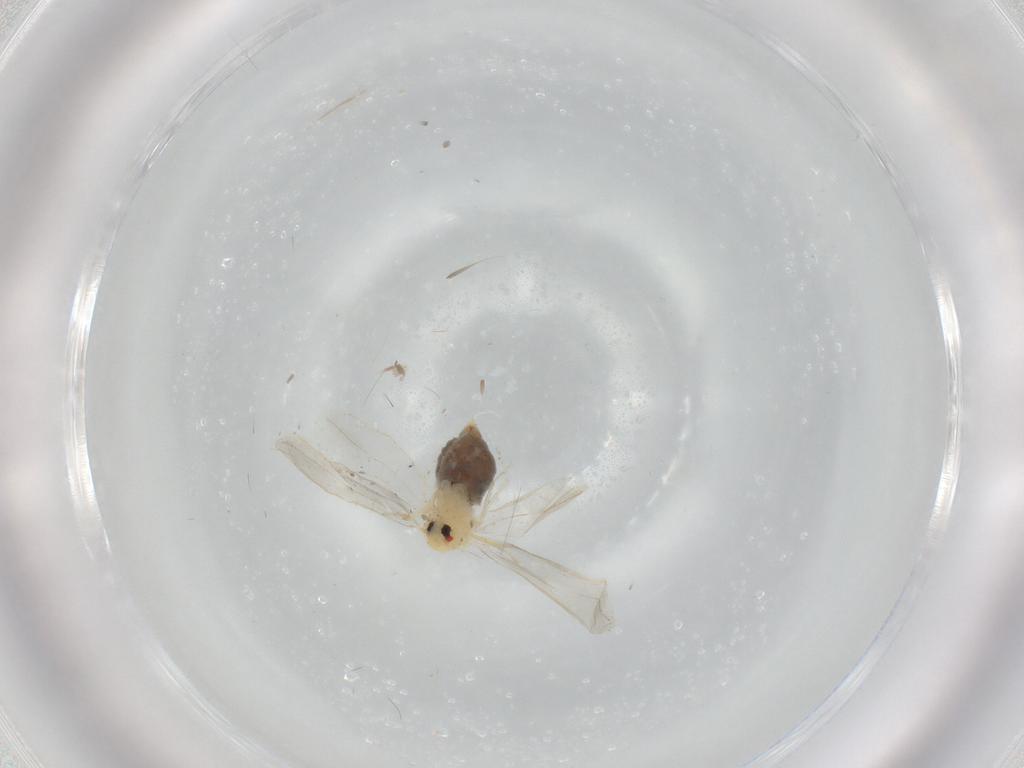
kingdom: Animalia
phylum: Arthropoda
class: Insecta
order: Hemiptera
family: Aleyrodidae
